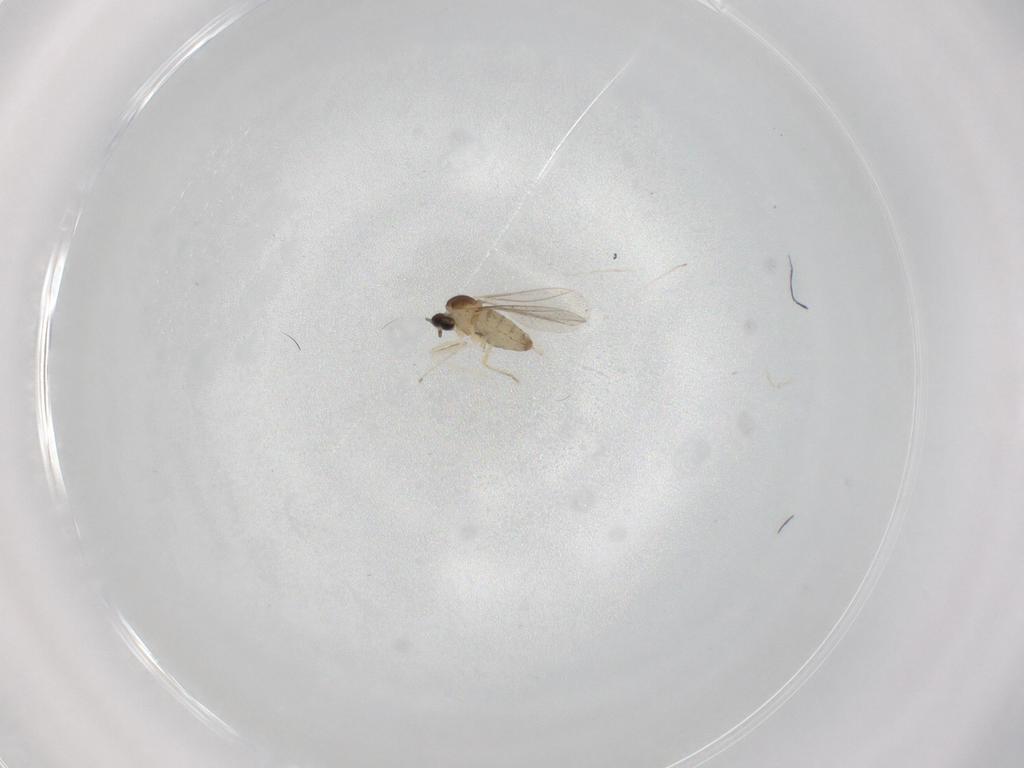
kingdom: Animalia
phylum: Arthropoda
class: Insecta
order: Diptera
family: Cecidomyiidae
